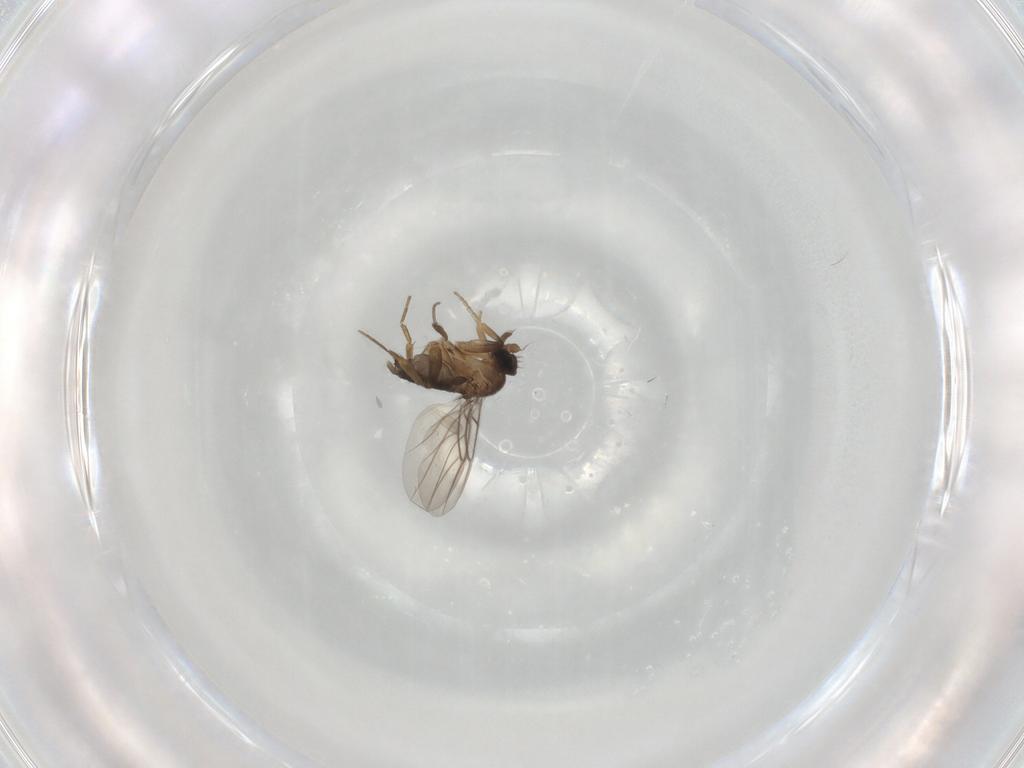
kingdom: Animalia
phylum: Arthropoda
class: Insecta
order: Diptera
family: Phoridae
